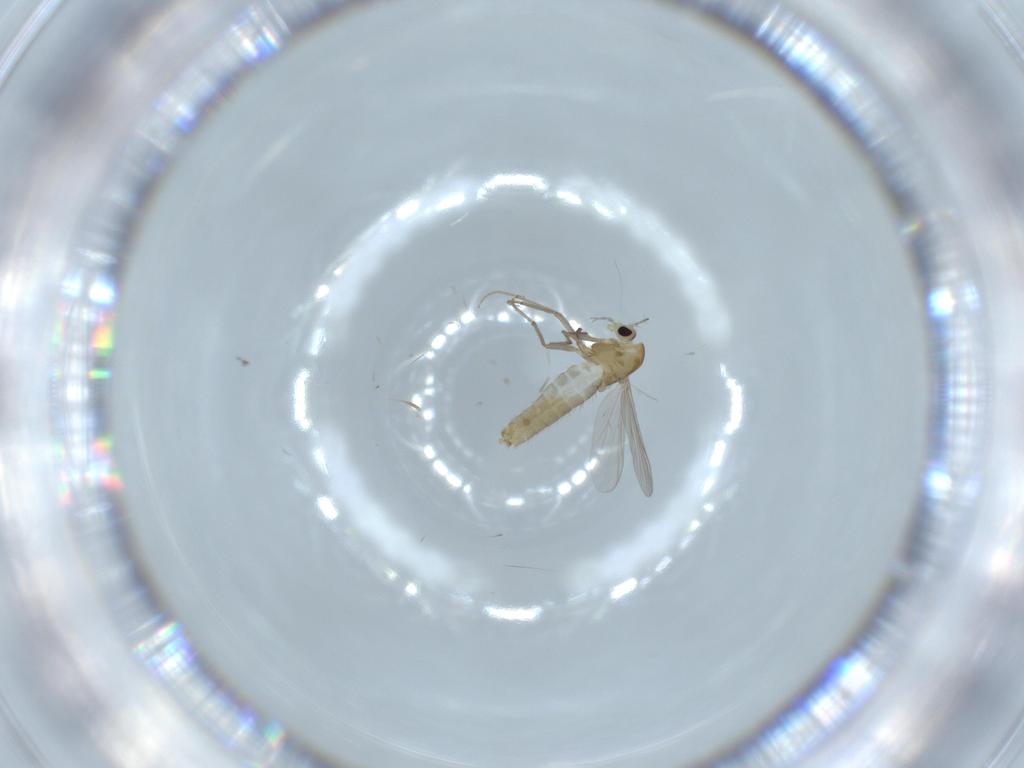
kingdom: Animalia
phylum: Arthropoda
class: Insecta
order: Diptera
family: Chironomidae
